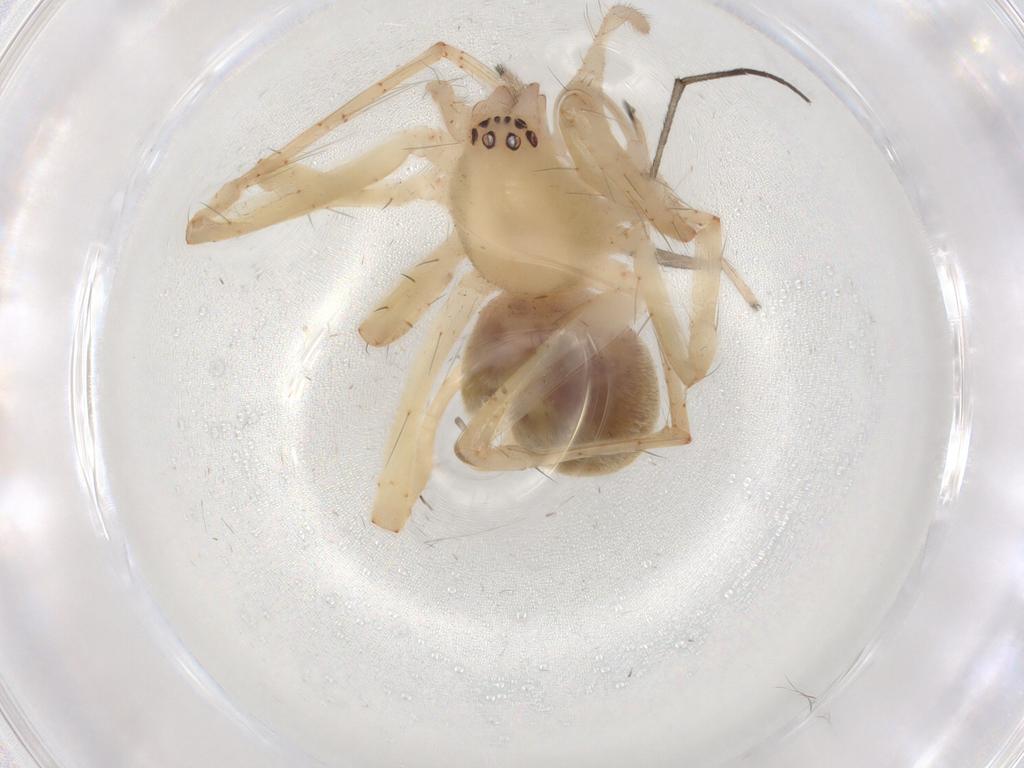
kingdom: Animalia
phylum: Arthropoda
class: Arachnida
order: Araneae
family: Anyphaenidae
